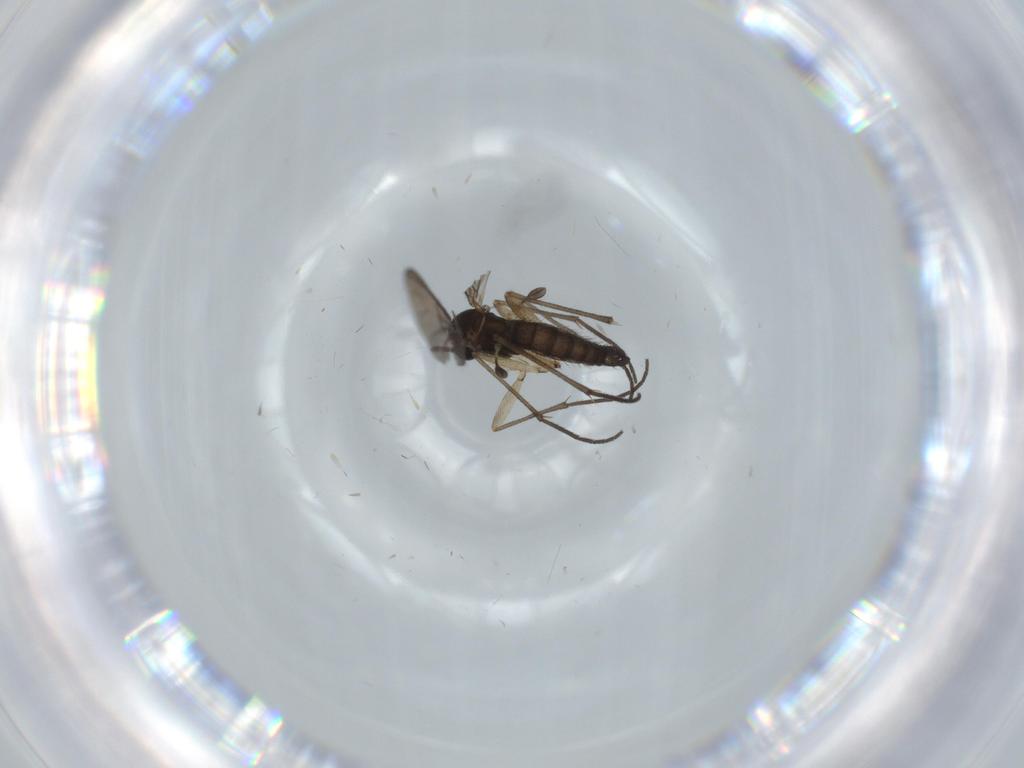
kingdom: Animalia
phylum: Arthropoda
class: Insecta
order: Diptera
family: Sciaridae
